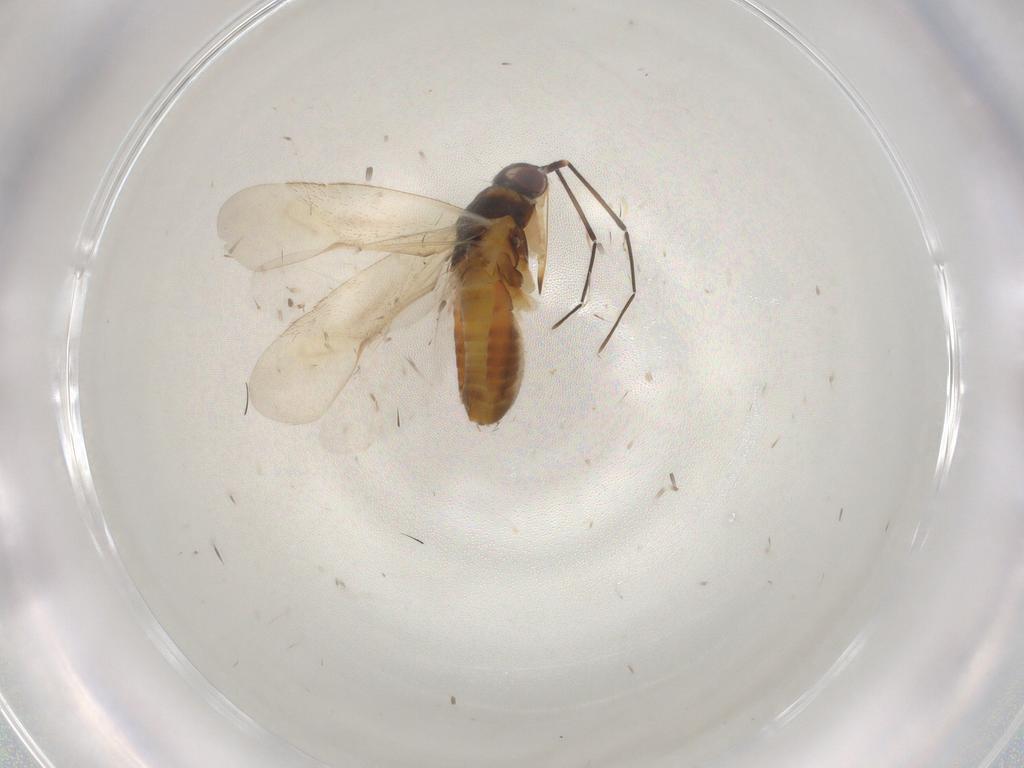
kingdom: Animalia
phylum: Arthropoda
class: Insecta
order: Hemiptera
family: Miridae
